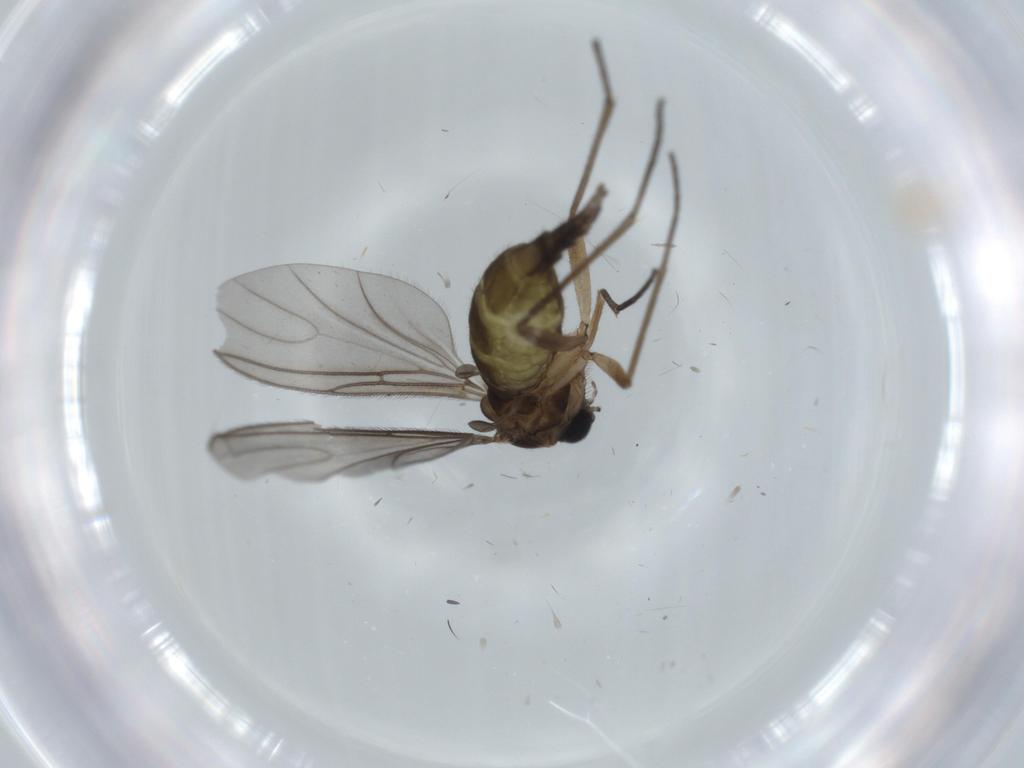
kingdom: Animalia
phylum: Arthropoda
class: Insecta
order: Diptera
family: Sciaridae
